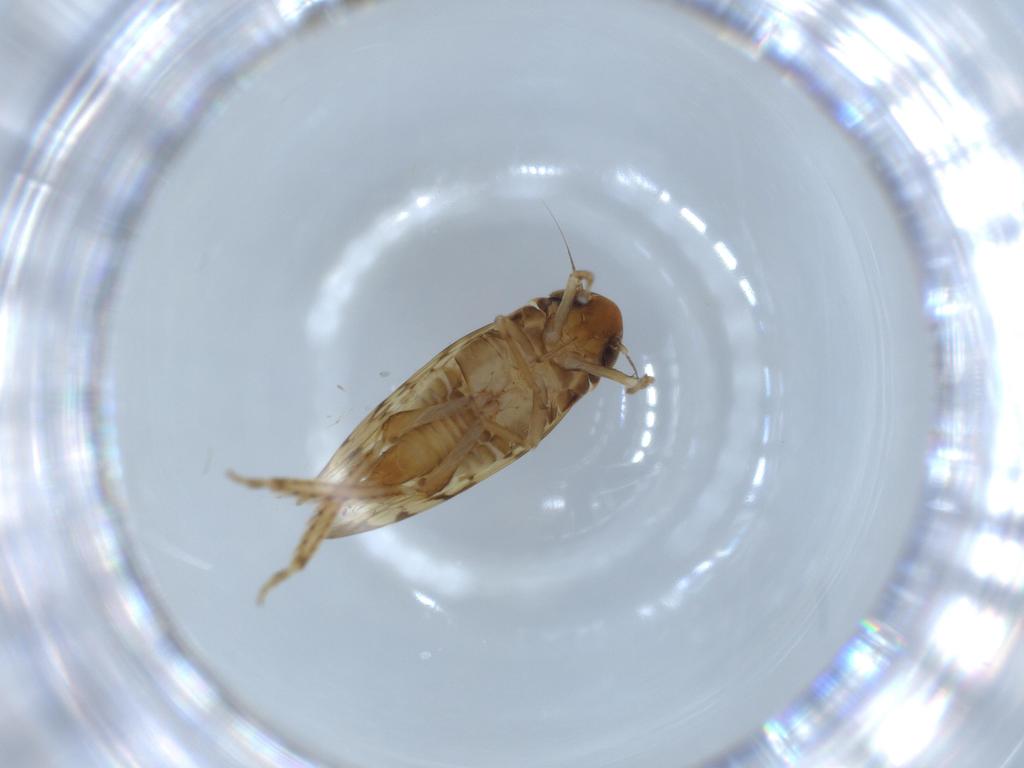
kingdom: Animalia
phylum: Arthropoda
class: Insecta
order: Hemiptera
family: Cicadellidae
